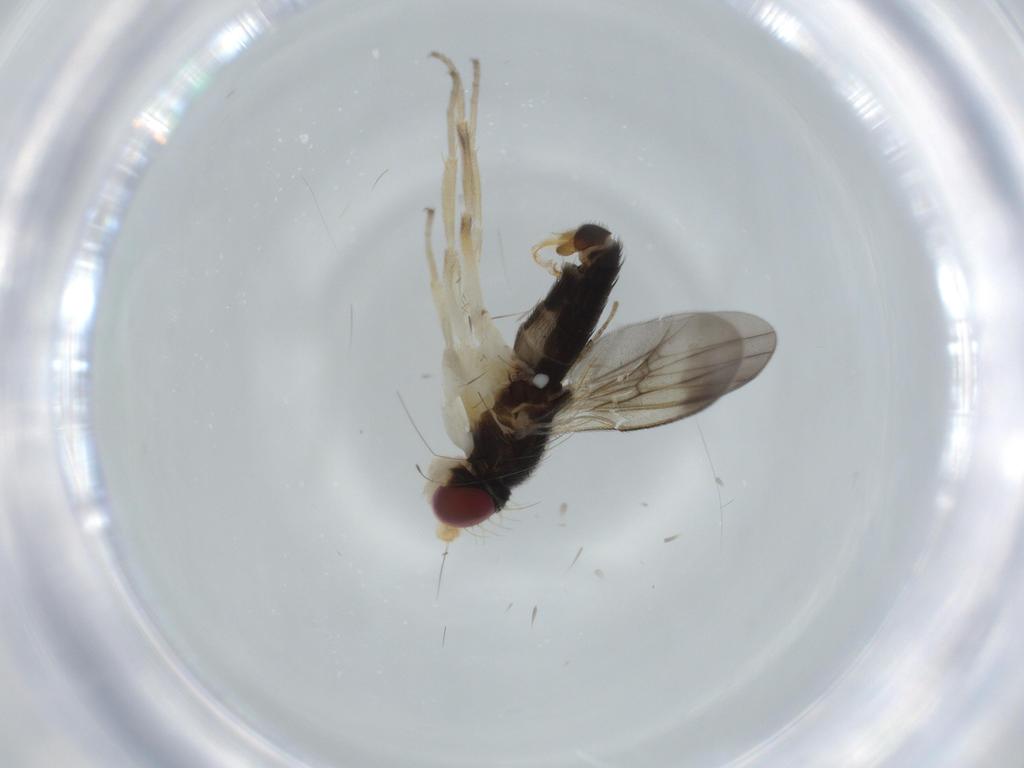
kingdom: Animalia
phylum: Arthropoda
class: Insecta
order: Diptera
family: Clusiidae
